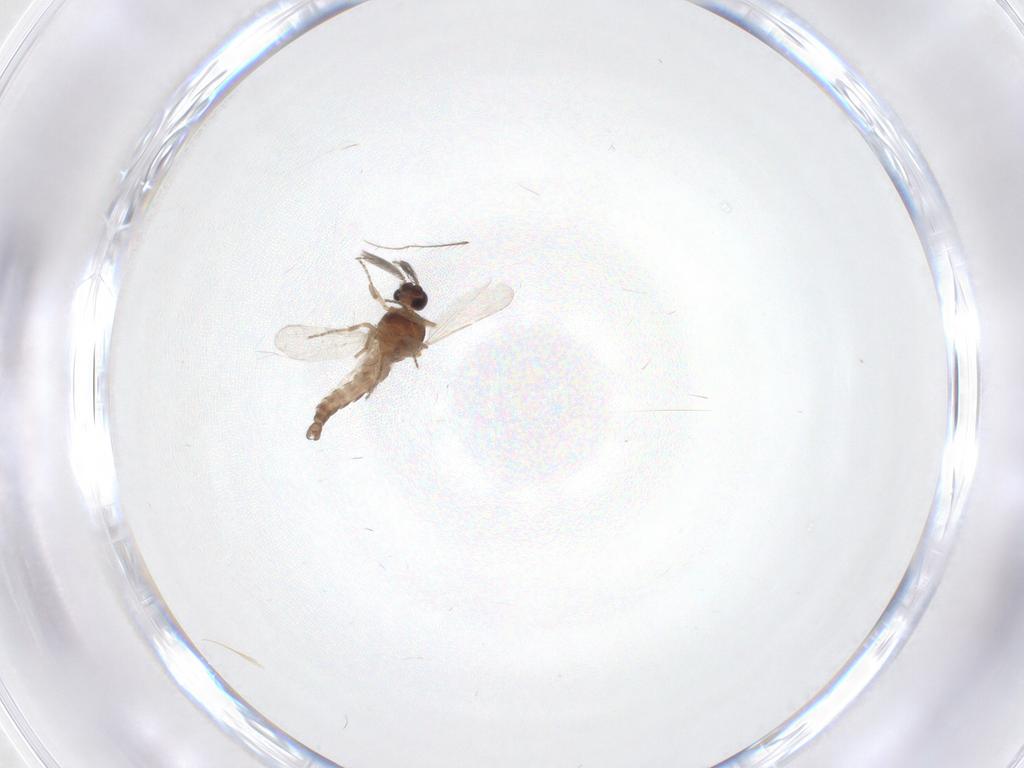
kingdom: Animalia
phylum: Arthropoda
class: Insecta
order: Diptera
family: Ceratopogonidae
